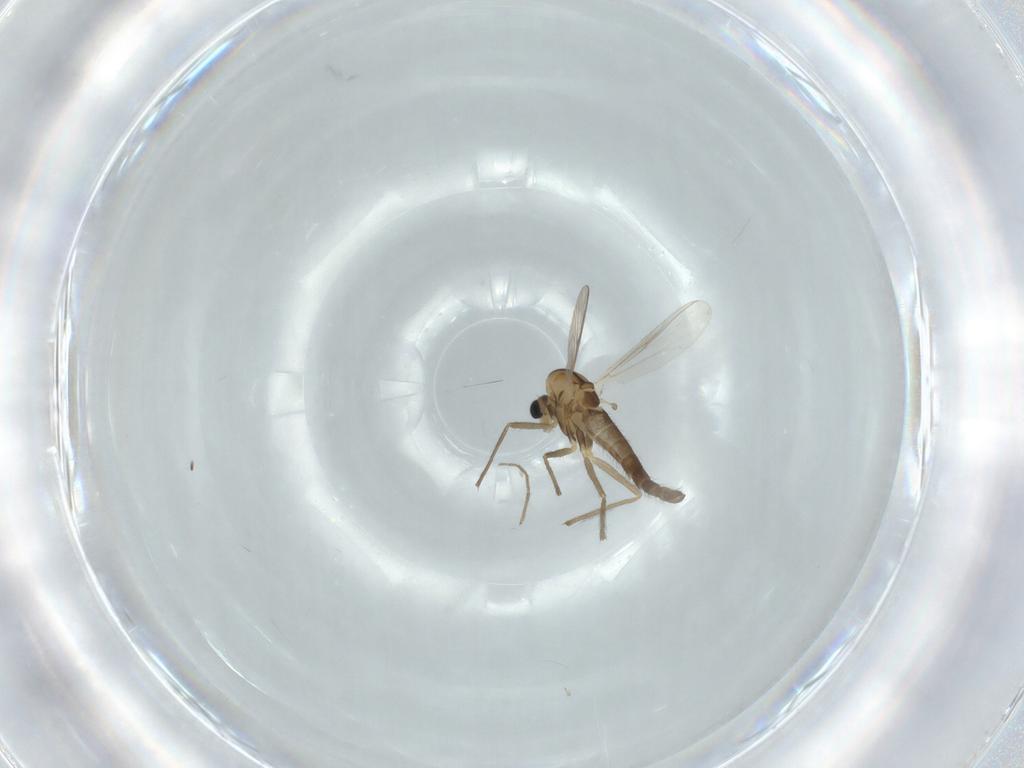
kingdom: Animalia
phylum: Arthropoda
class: Insecta
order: Diptera
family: Chironomidae
